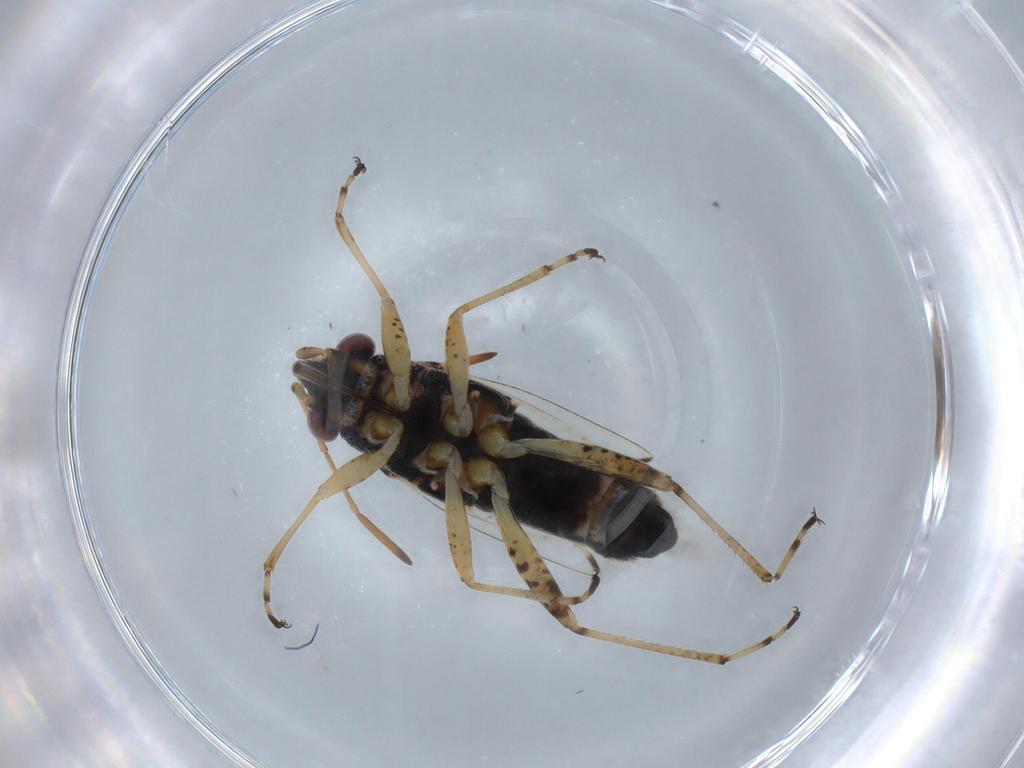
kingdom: Animalia
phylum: Arthropoda
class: Insecta
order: Hemiptera
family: Lygaeidae
